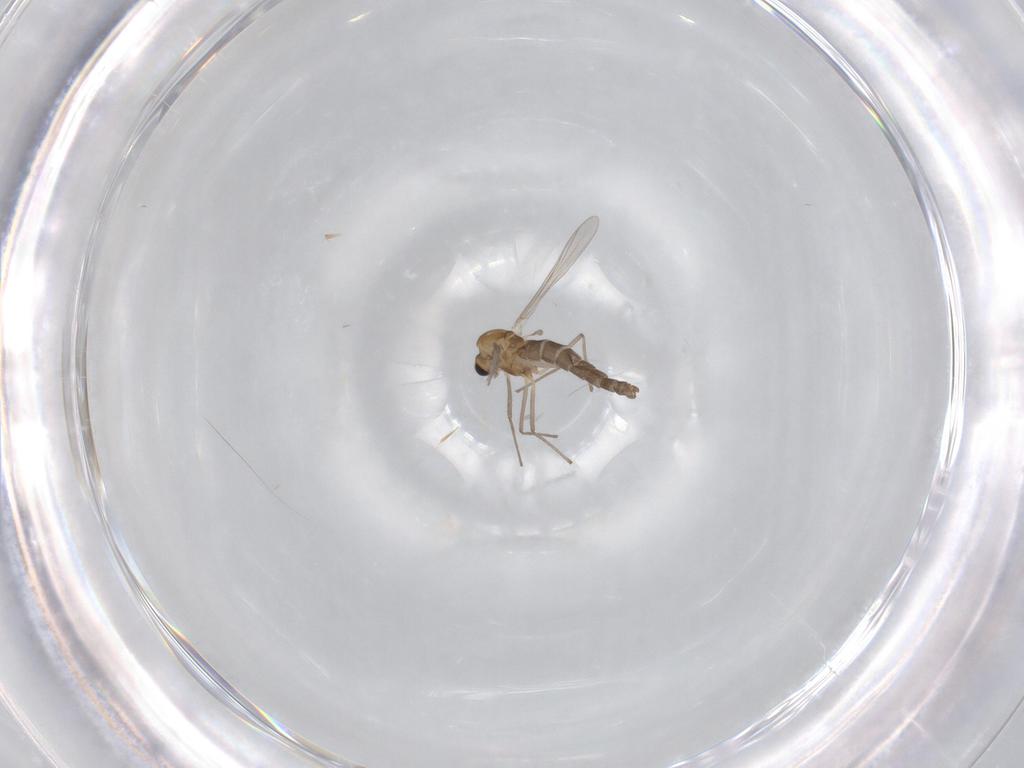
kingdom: Animalia
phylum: Arthropoda
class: Insecta
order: Diptera
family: Chironomidae
